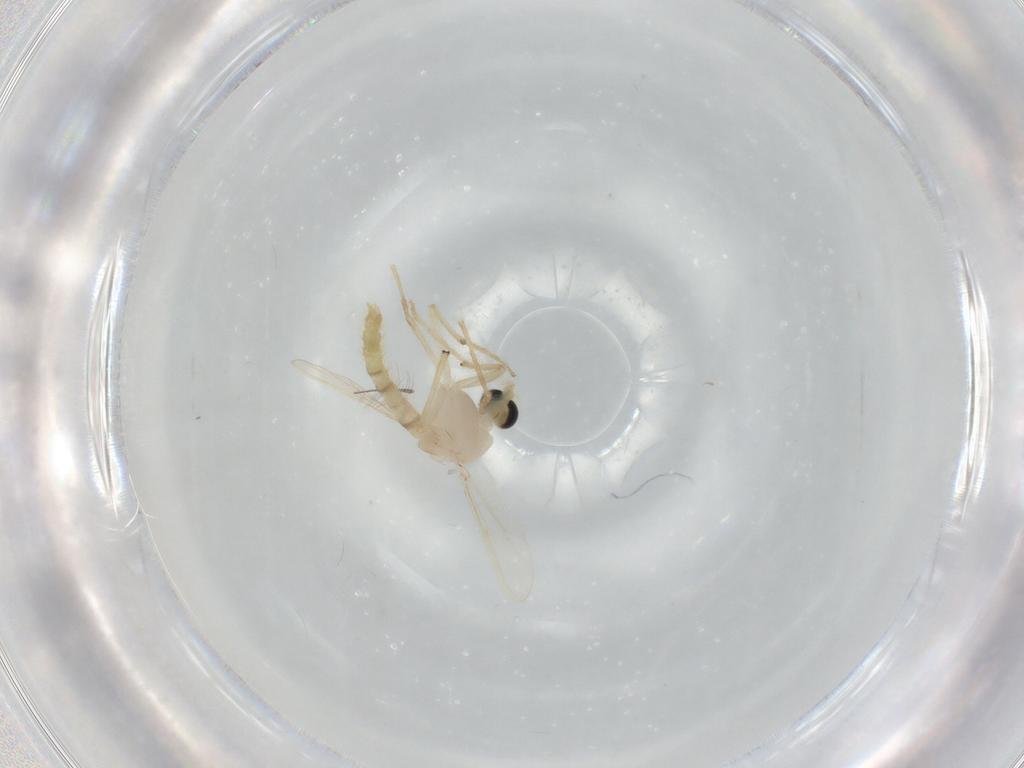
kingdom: Animalia
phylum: Arthropoda
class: Insecta
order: Diptera
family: Chironomidae
